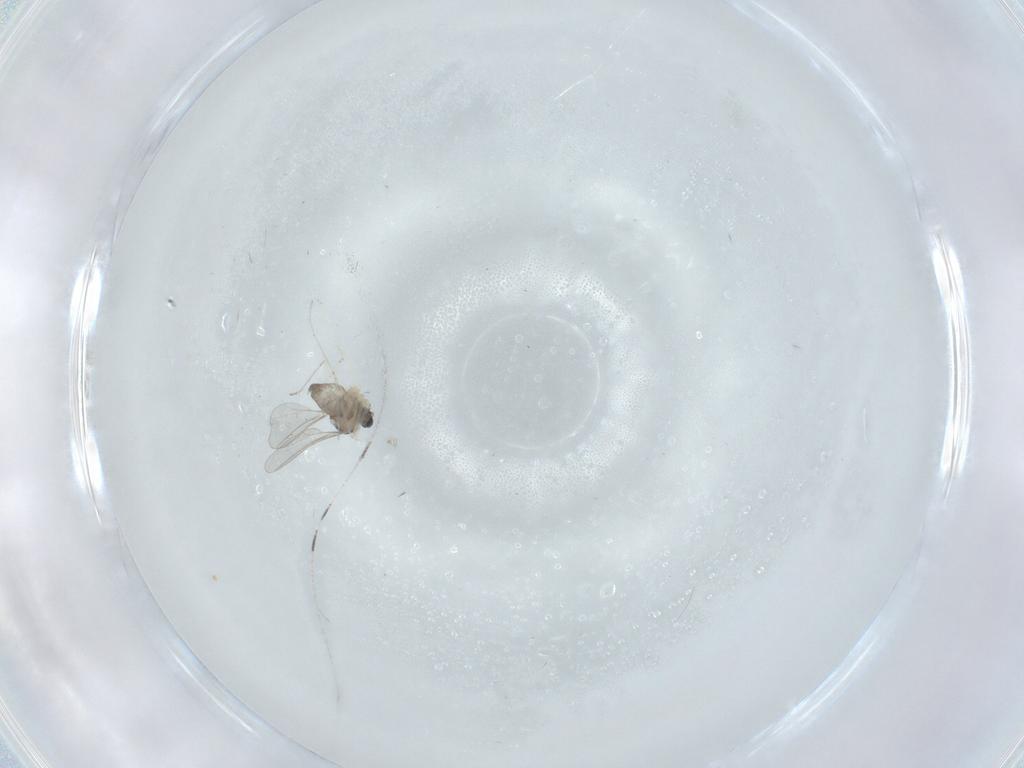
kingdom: Animalia
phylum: Arthropoda
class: Insecta
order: Diptera
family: Cecidomyiidae
